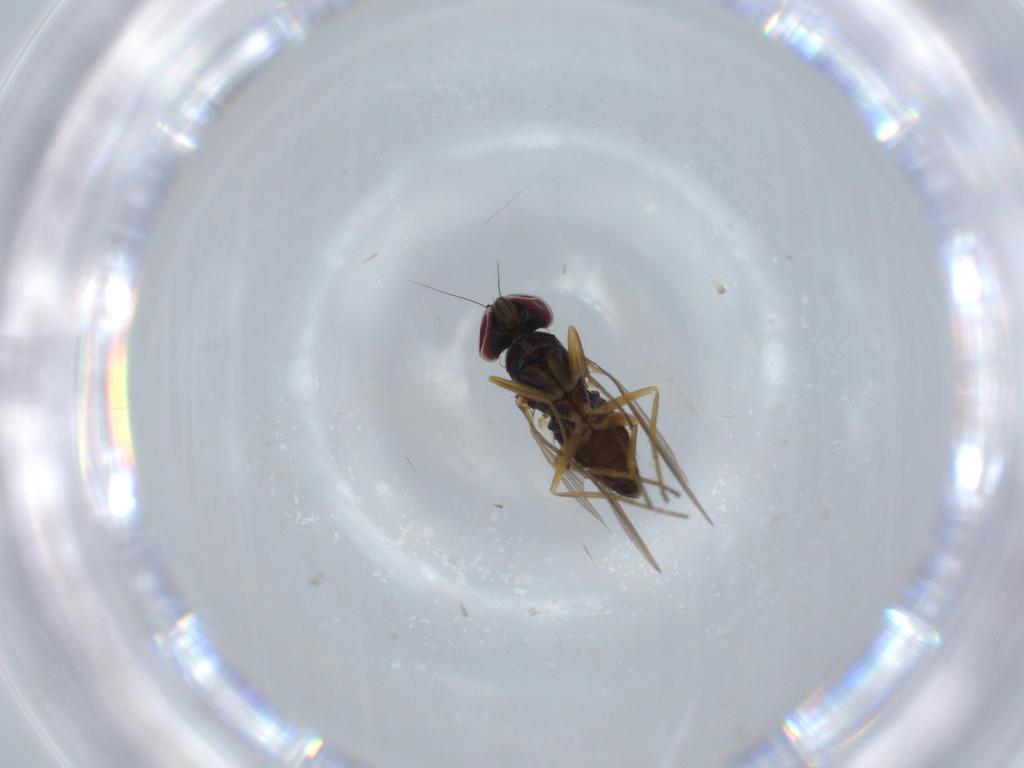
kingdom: Animalia
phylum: Arthropoda
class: Insecta
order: Diptera
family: Dolichopodidae
